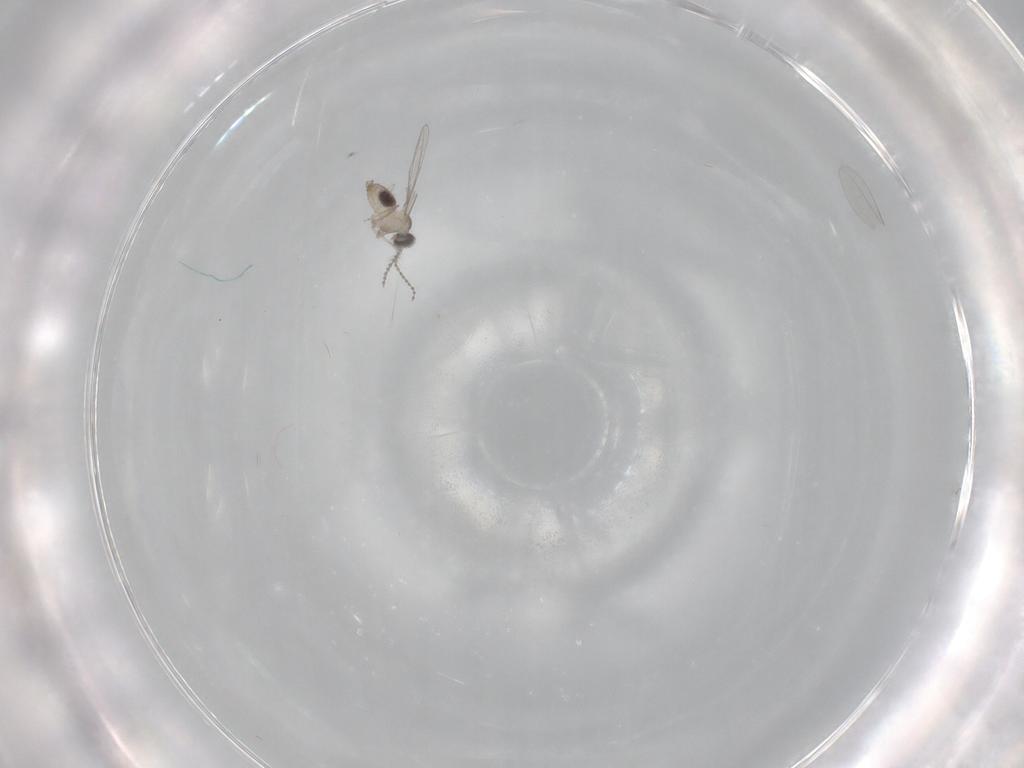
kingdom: Animalia
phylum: Arthropoda
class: Insecta
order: Diptera
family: Cecidomyiidae
